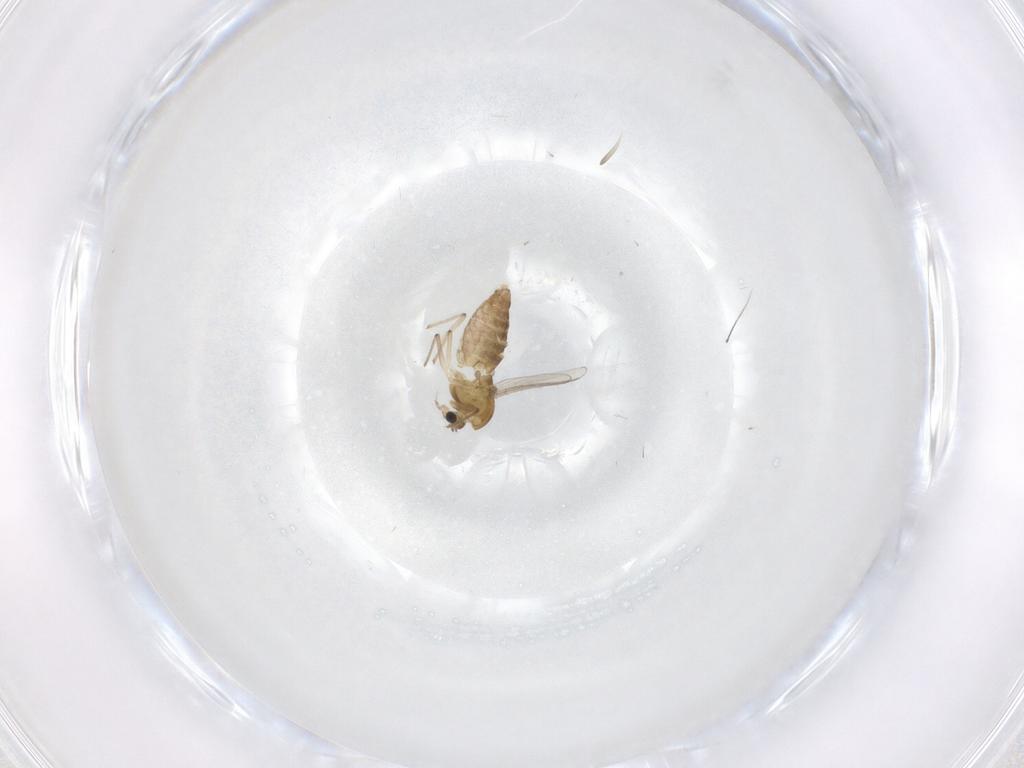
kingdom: Animalia
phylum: Arthropoda
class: Insecta
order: Diptera
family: Chironomidae
